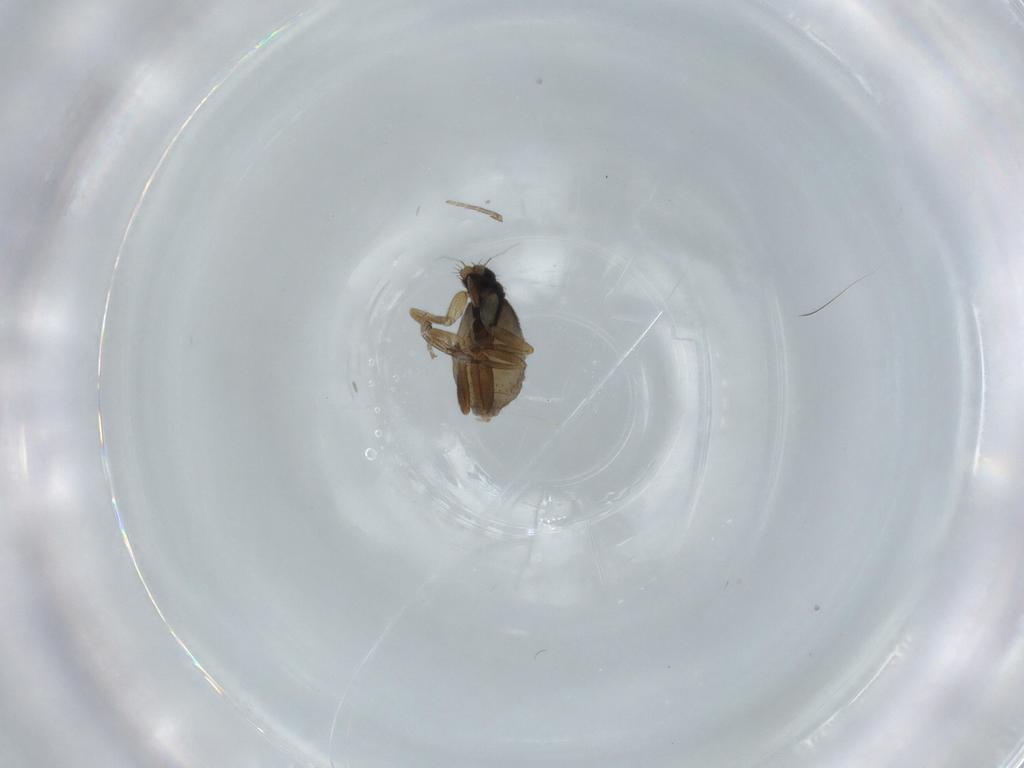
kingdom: Animalia
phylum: Arthropoda
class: Insecta
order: Diptera
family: Phoridae
